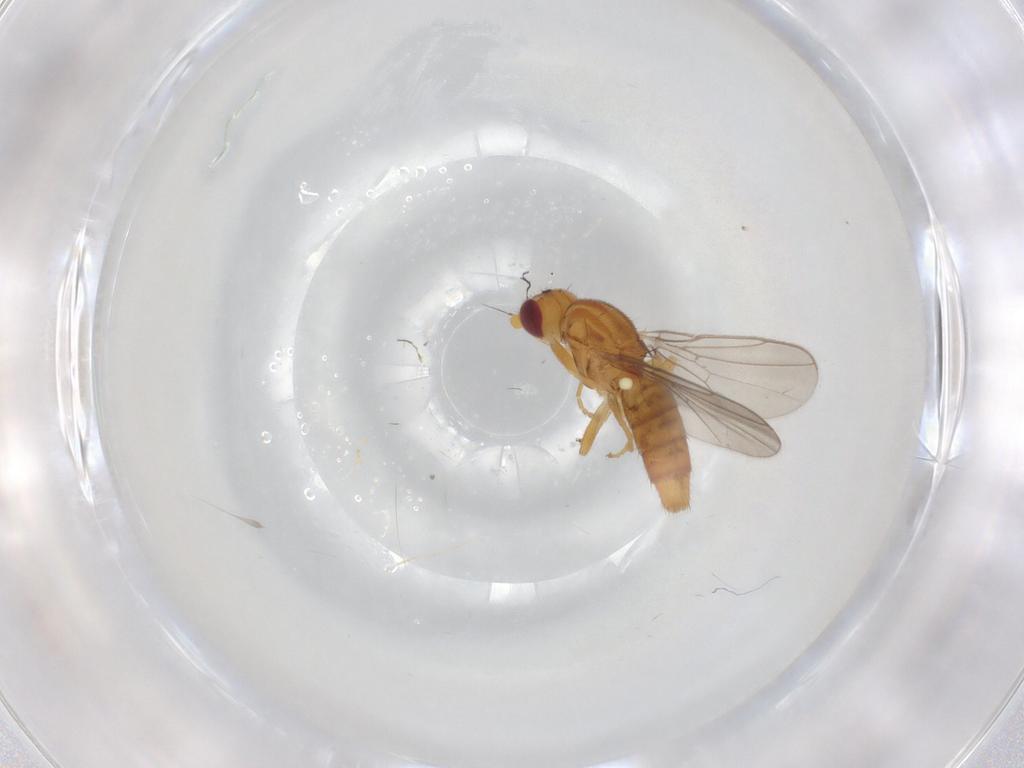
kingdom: Animalia
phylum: Arthropoda
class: Insecta
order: Diptera
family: Chloropidae
